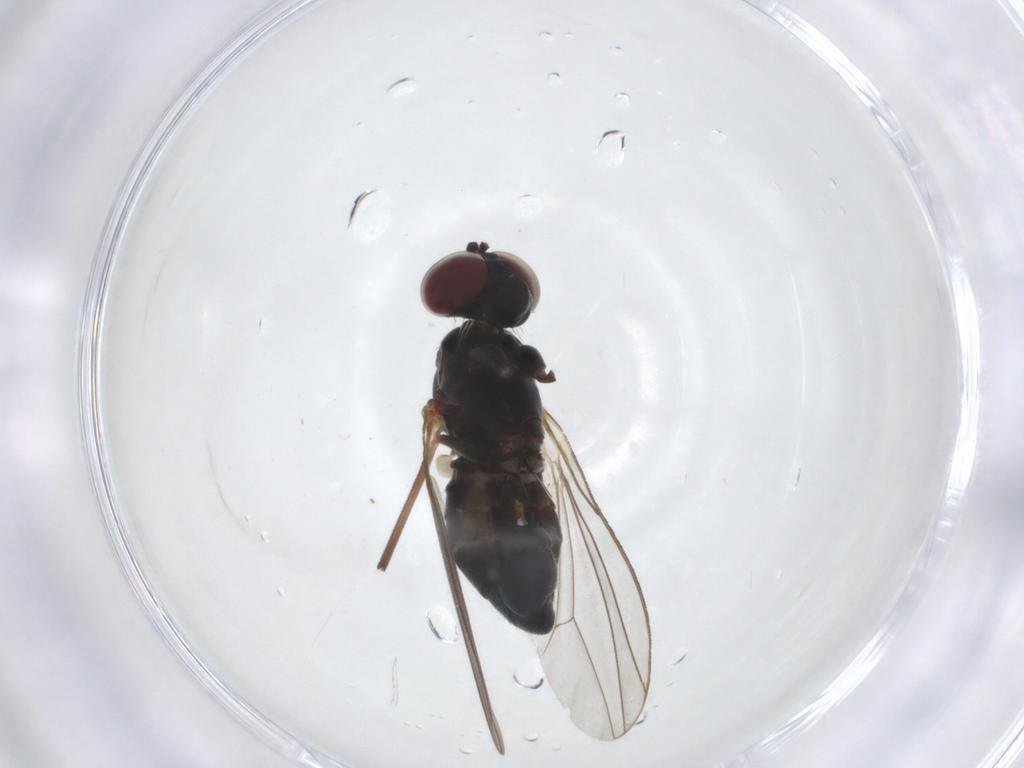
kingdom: Animalia
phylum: Arthropoda
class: Insecta
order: Diptera
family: Dolichopodidae
